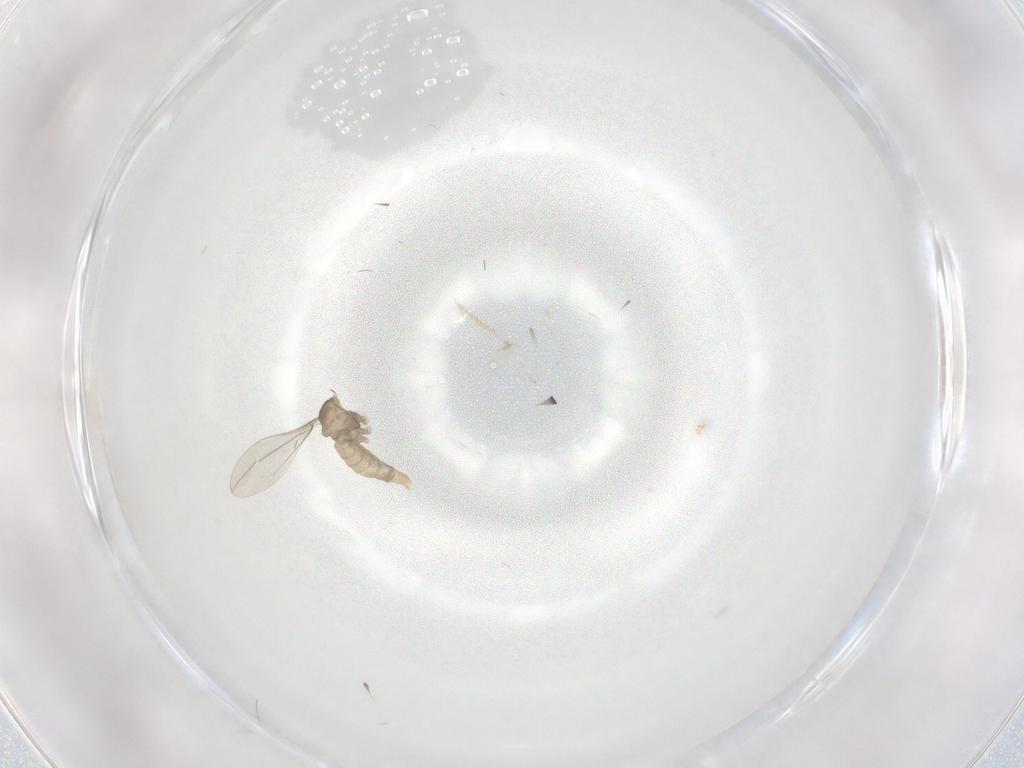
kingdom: Animalia
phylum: Arthropoda
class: Insecta
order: Diptera
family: Cecidomyiidae
